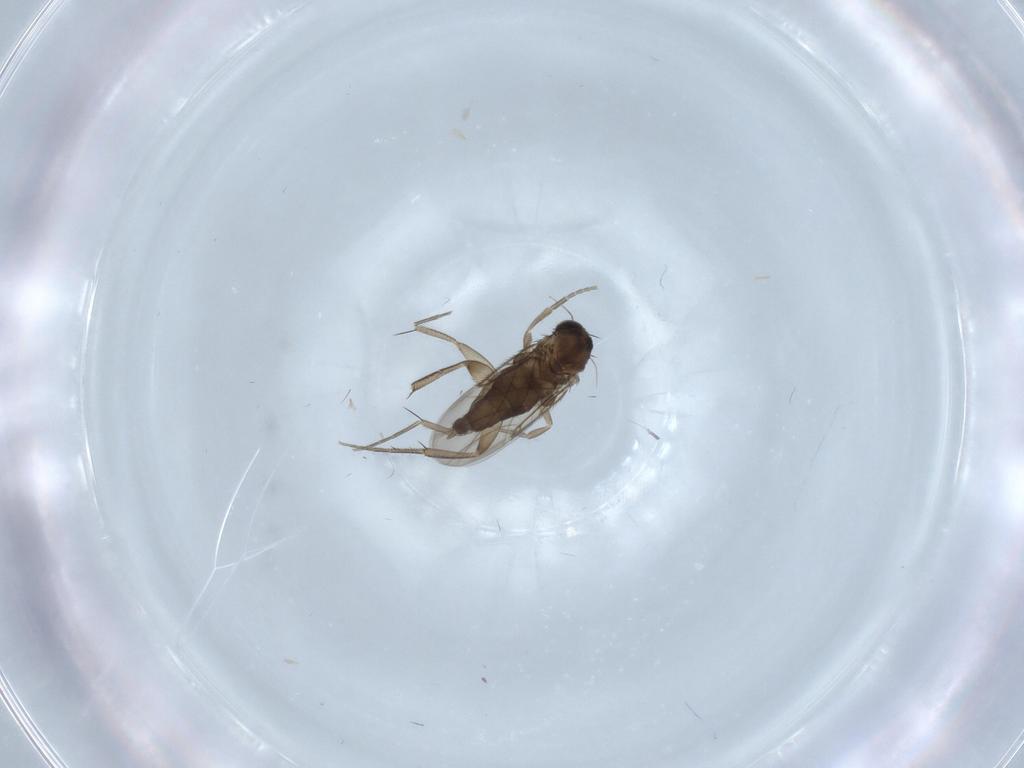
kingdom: Animalia
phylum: Arthropoda
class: Insecta
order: Diptera
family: Phoridae
